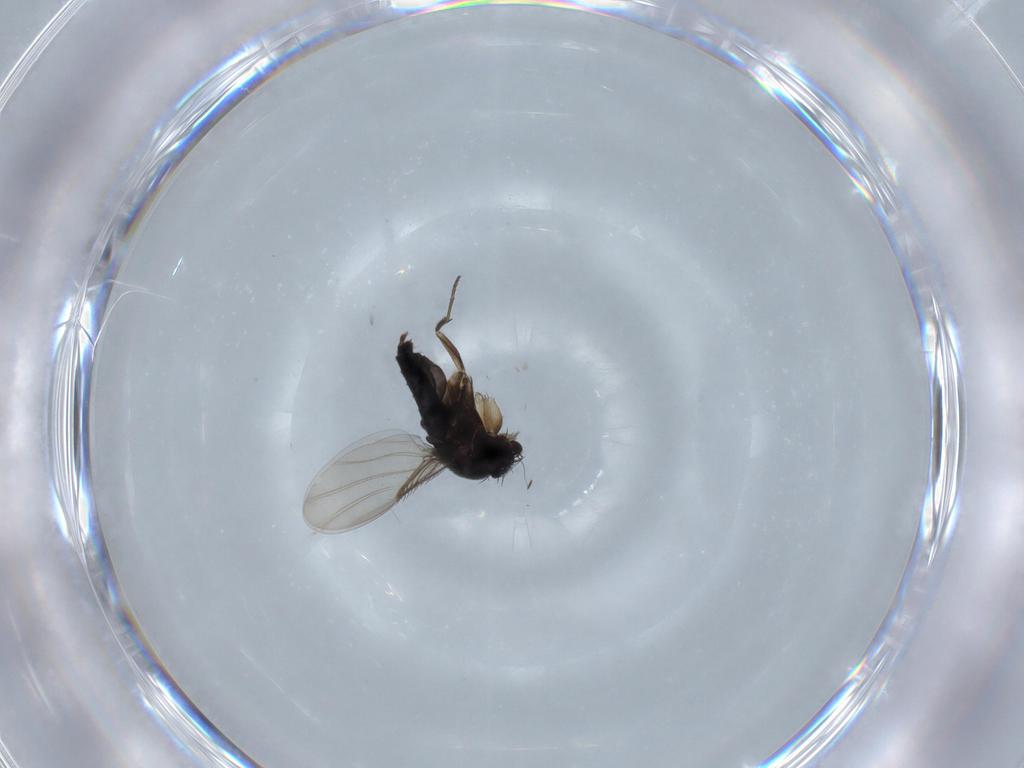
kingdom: Animalia
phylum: Arthropoda
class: Insecta
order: Diptera
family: Phoridae
